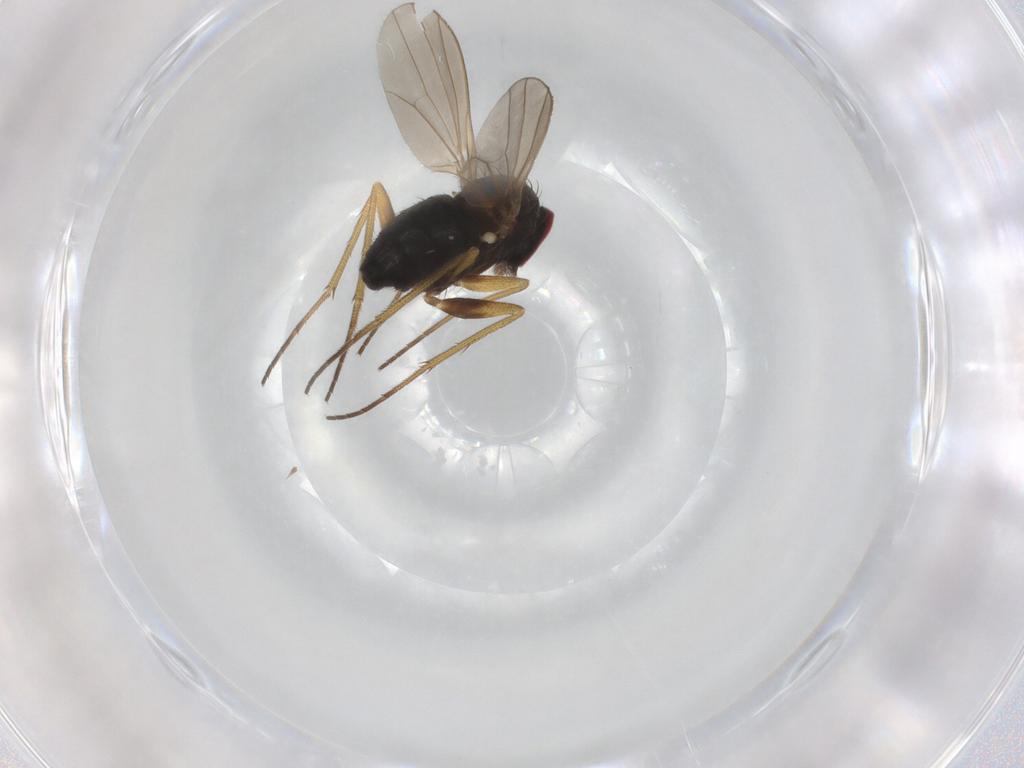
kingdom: Animalia
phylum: Arthropoda
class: Insecta
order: Diptera
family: Dolichopodidae
